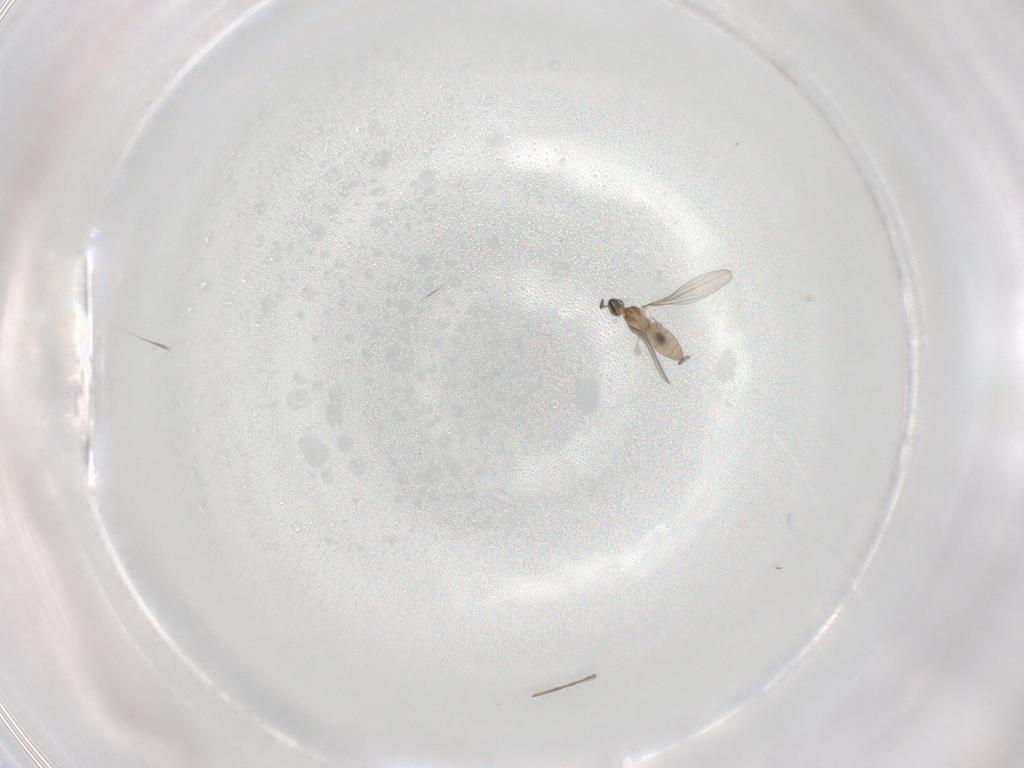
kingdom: Animalia
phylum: Arthropoda
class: Insecta
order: Diptera
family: Cecidomyiidae
